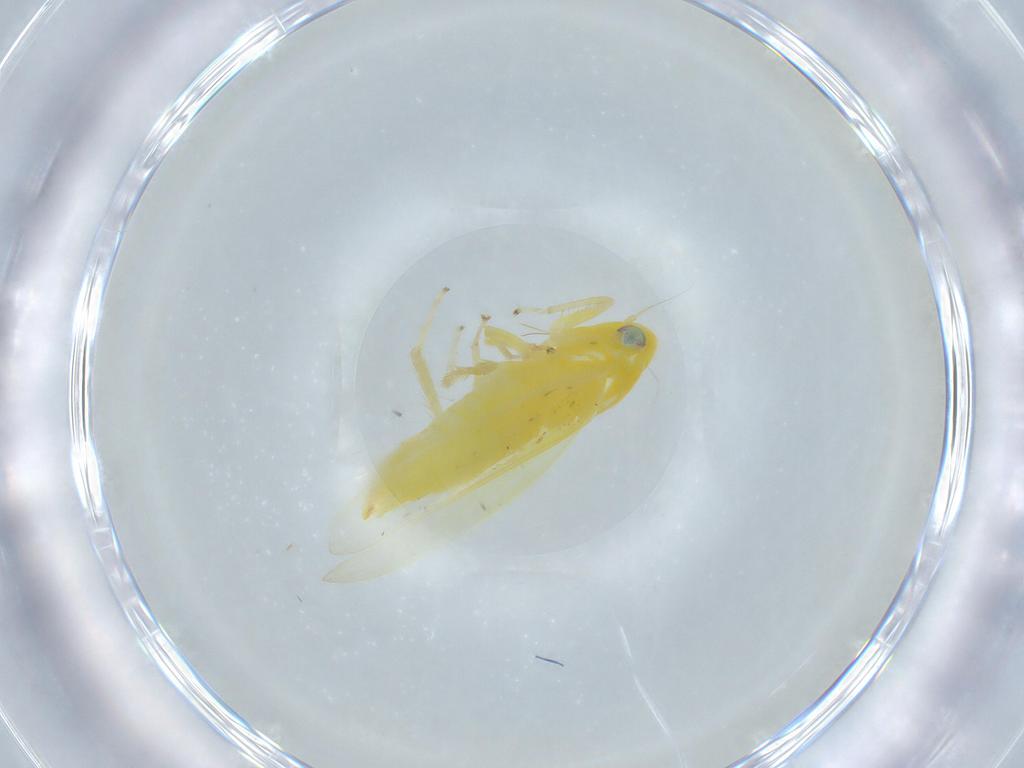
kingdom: Animalia
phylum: Arthropoda
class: Insecta
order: Hemiptera
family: Cicadellidae
